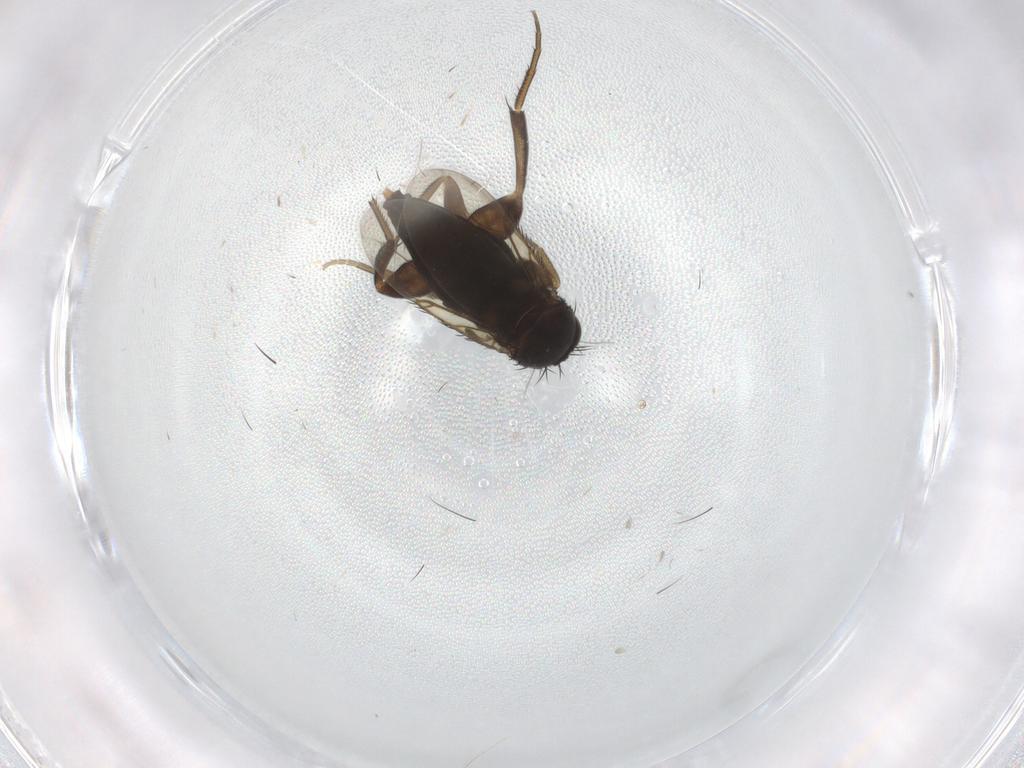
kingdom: Animalia
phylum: Arthropoda
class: Insecta
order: Diptera
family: Phoridae
